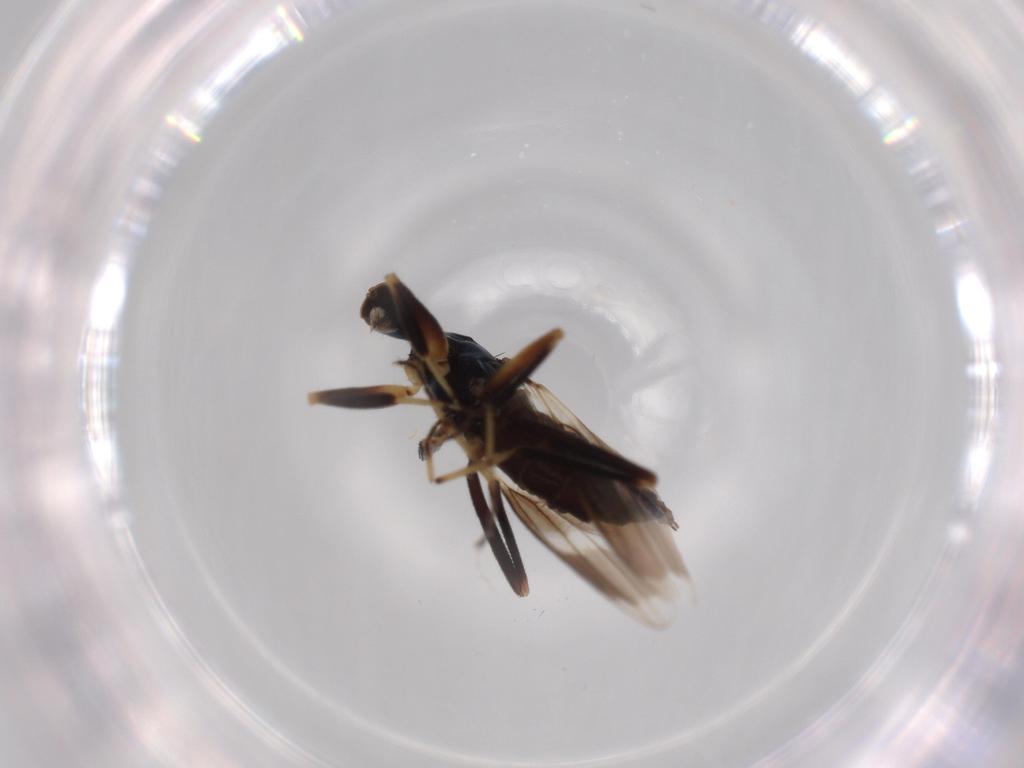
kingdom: Animalia
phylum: Arthropoda
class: Insecta
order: Diptera
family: Hybotidae
